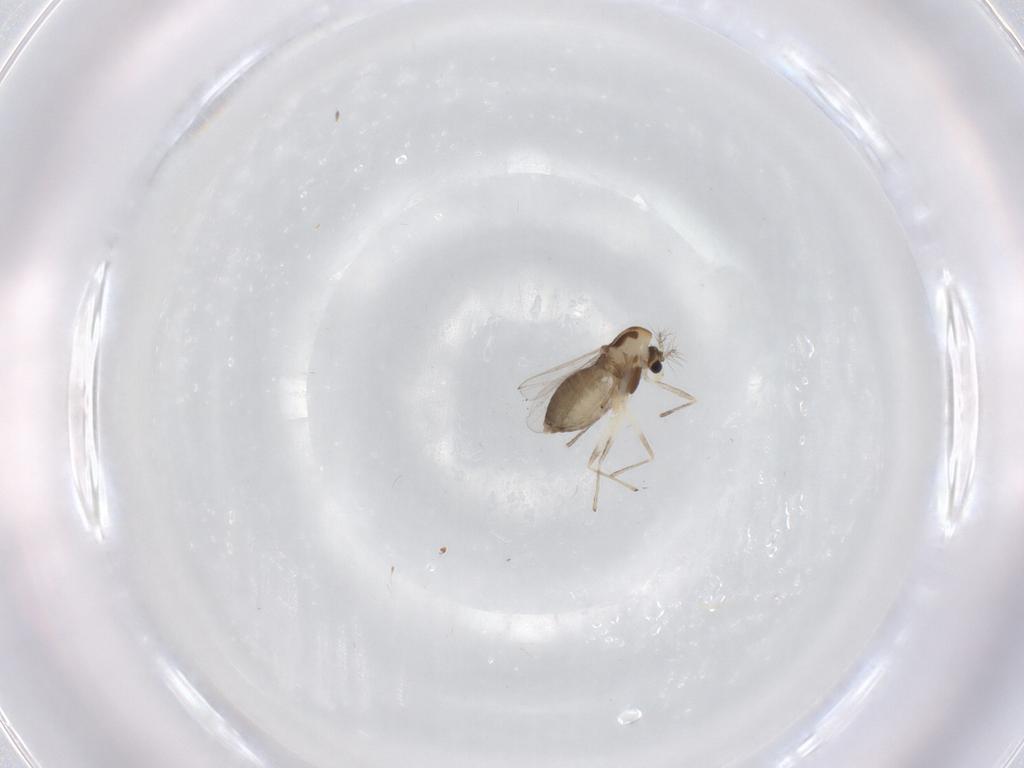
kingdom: Animalia
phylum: Arthropoda
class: Insecta
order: Diptera
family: Chironomidae
